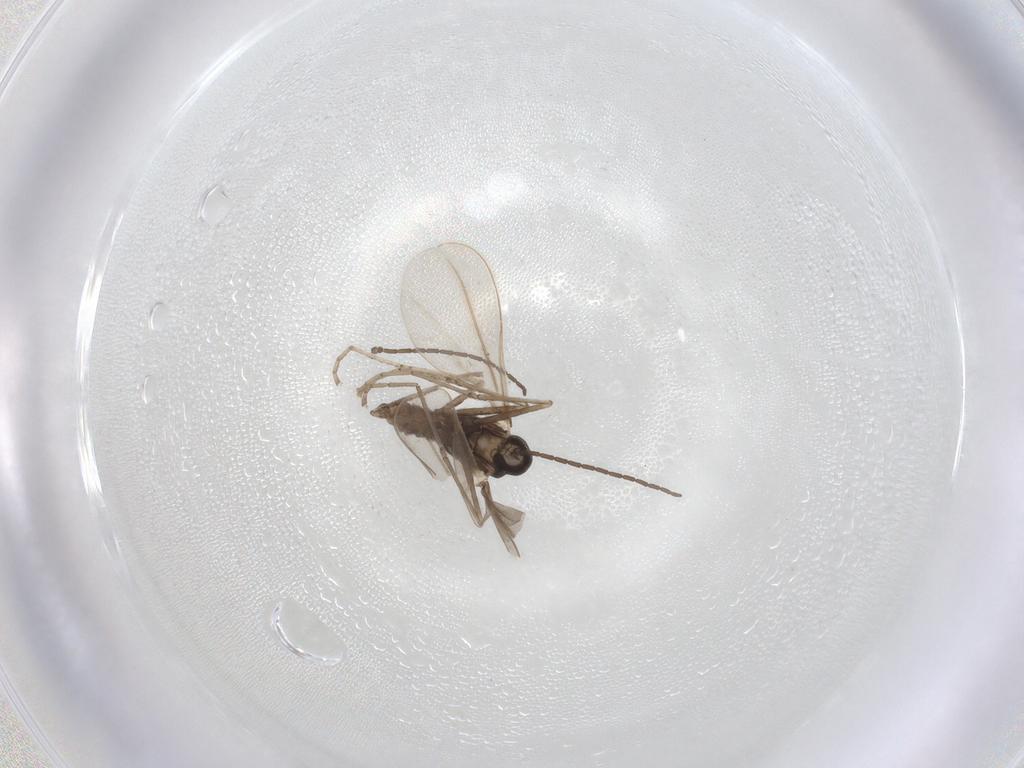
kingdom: Animalia
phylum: Arthropoda
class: Insecta
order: Diptera
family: Cecidomyiidae
